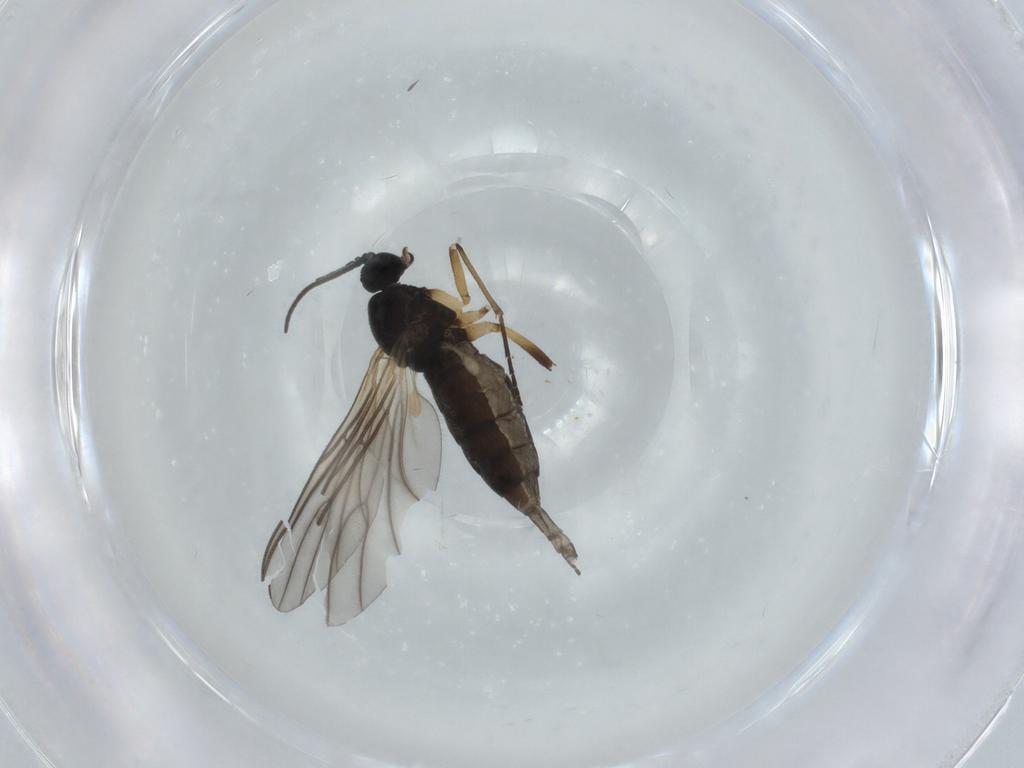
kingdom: Animalia
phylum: Arthropoda
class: Insecta
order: Diptera
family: Sciaridae
